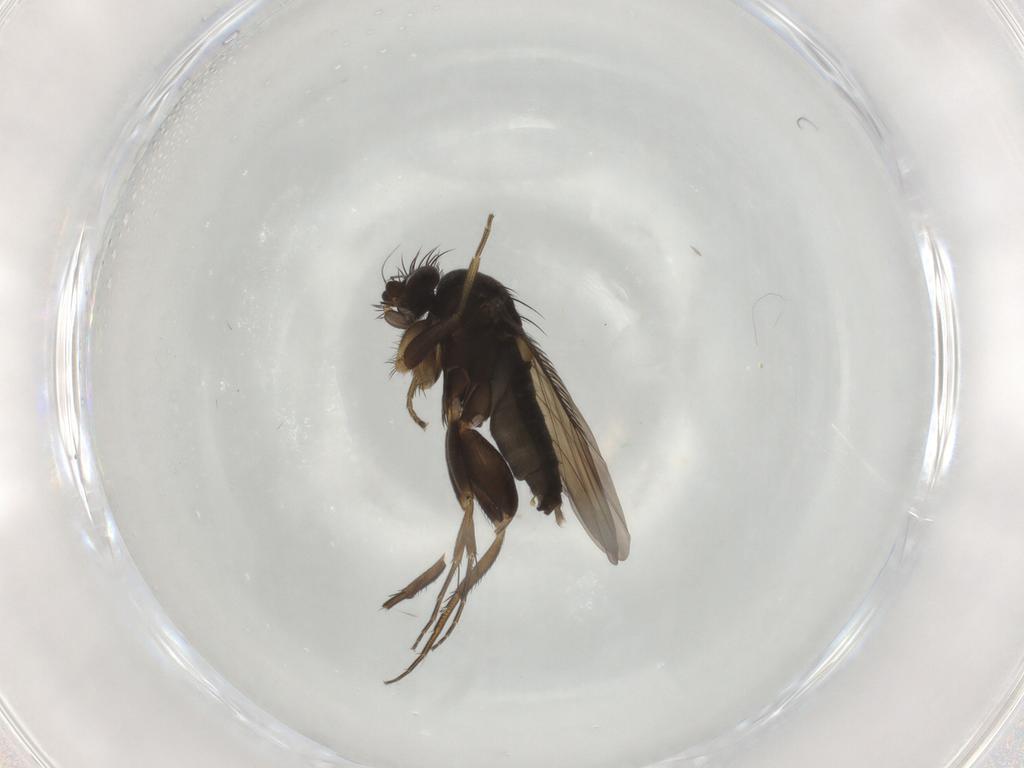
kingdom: Animalia
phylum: Arthropoda
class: Insecta
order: Diptera
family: Phoridae
